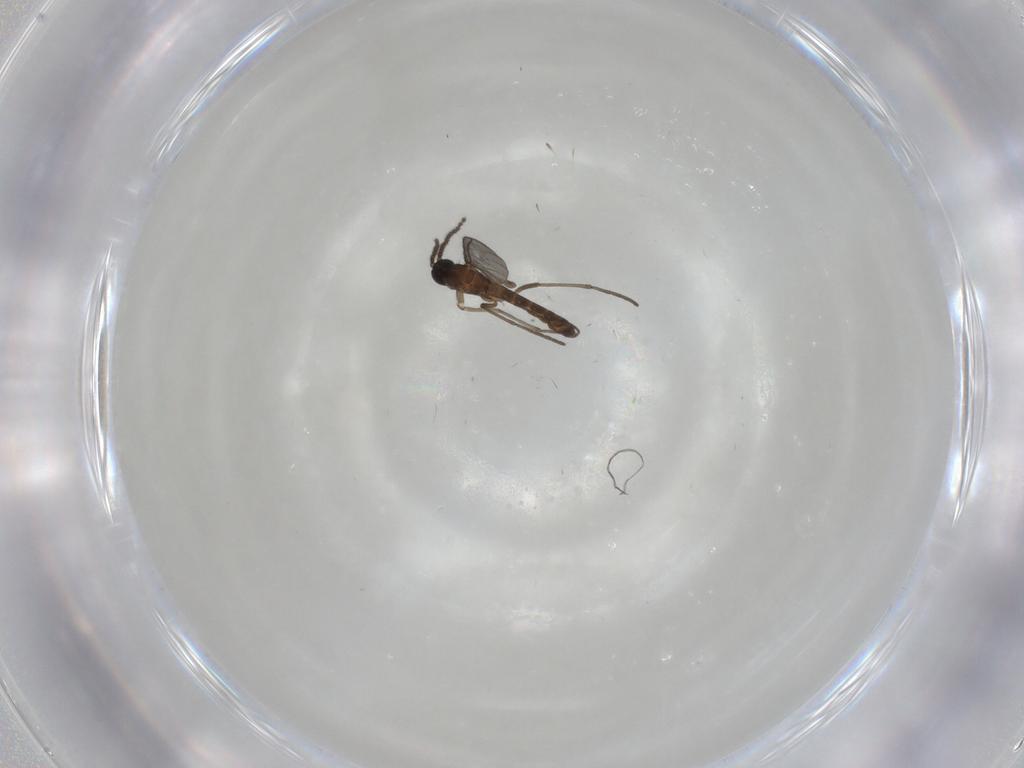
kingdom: Animalia
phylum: Arthropoda
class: Insecta
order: Diptera
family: Sciaridae
